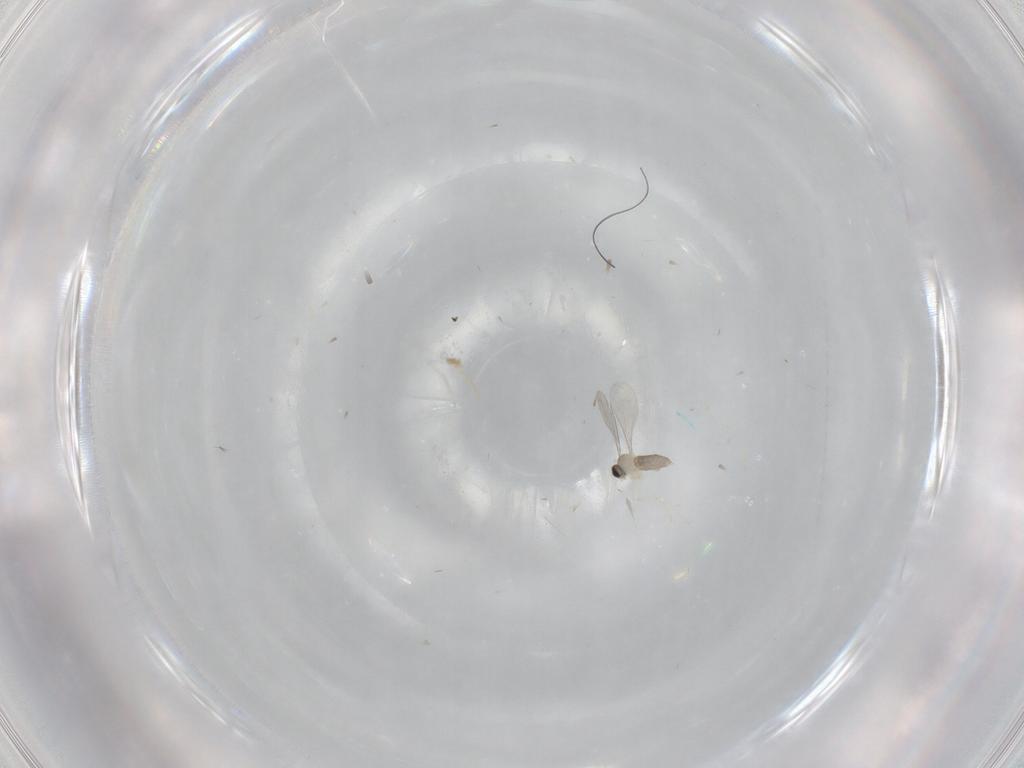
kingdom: Animalia
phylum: Arthropoda
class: Insecta
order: Diptera
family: Cecidomyiidae
